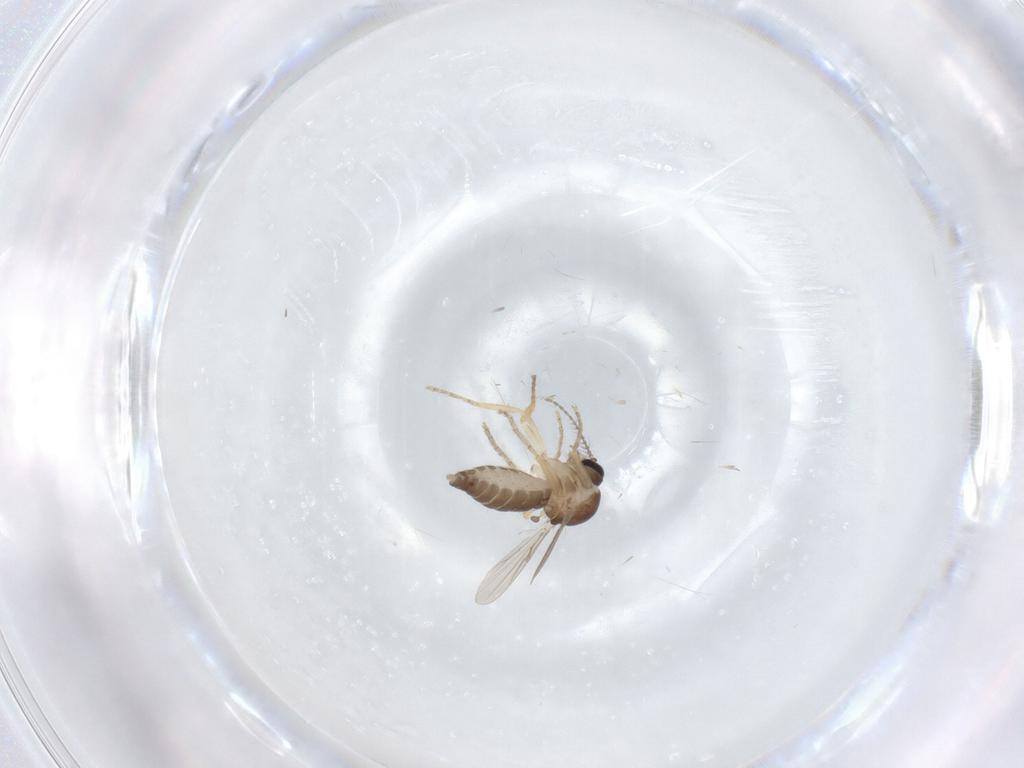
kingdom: Animalia
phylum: Arthropoda
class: Insecta
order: Diptera
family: Ceratopogonidae
